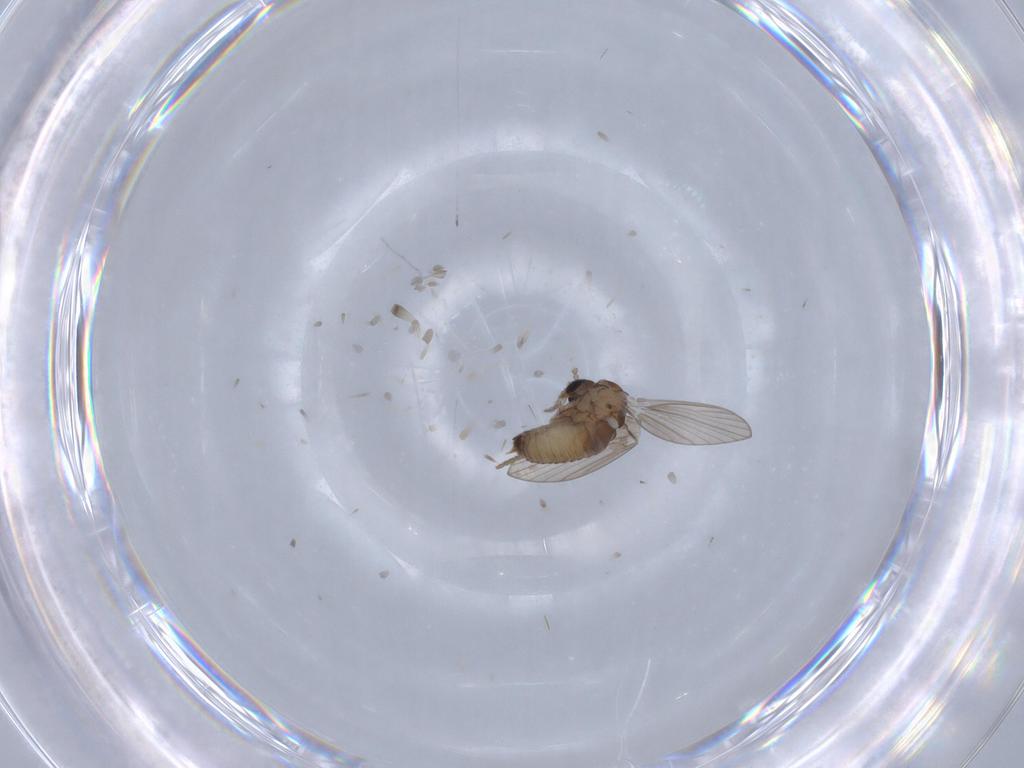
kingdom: Animalia
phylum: Arthropoda
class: Insecta
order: Diptera
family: Psychodidae
